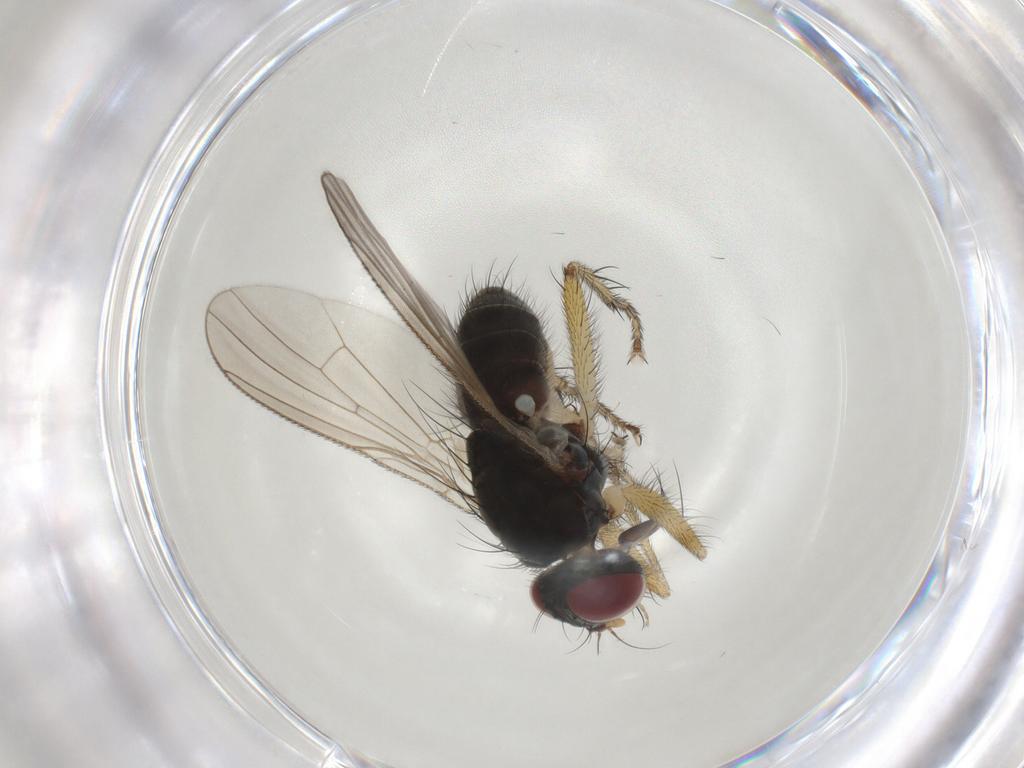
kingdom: Animalia
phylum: Arthropoda
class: Insecta
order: Diptera
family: Muscidae
